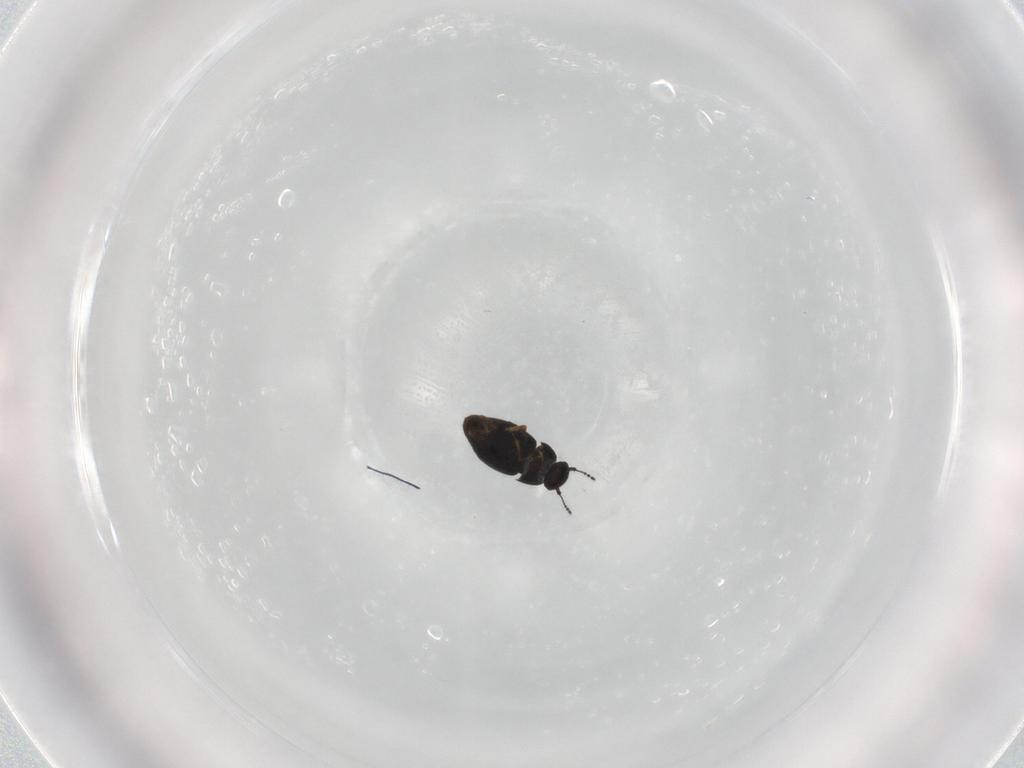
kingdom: Animalia
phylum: Arthropoda
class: Insecta
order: Coleoptera
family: Ptiliidae
